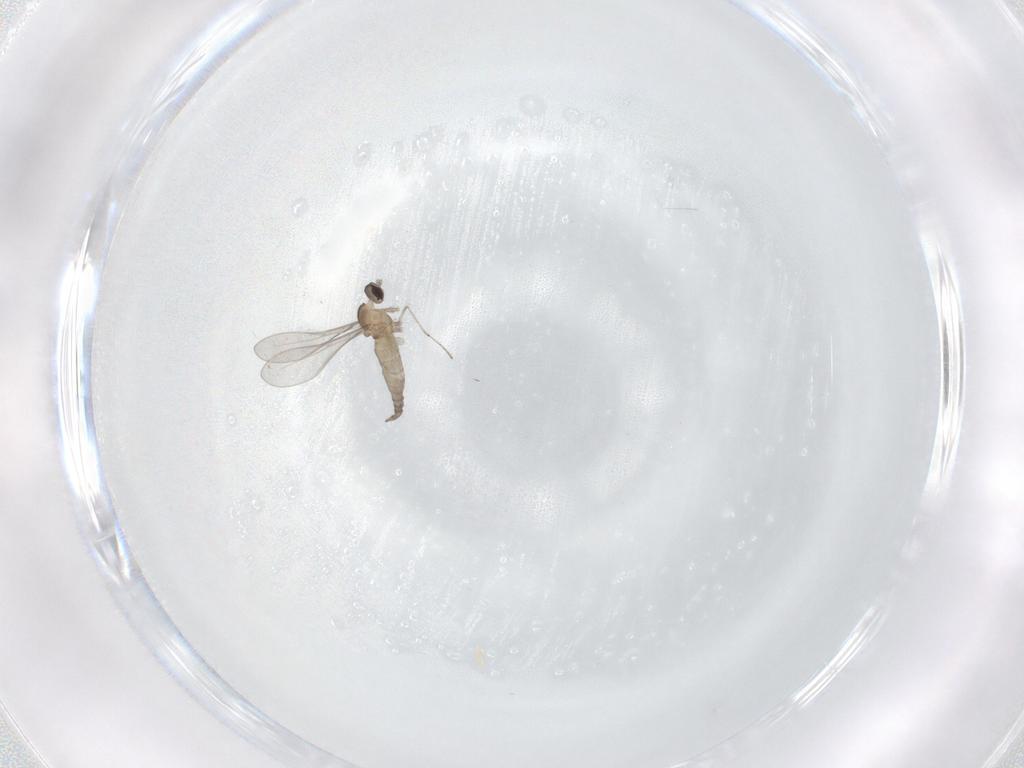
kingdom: Animalia
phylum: Arthropoda
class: Insecta
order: Diptera
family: Cecidomyiidae
